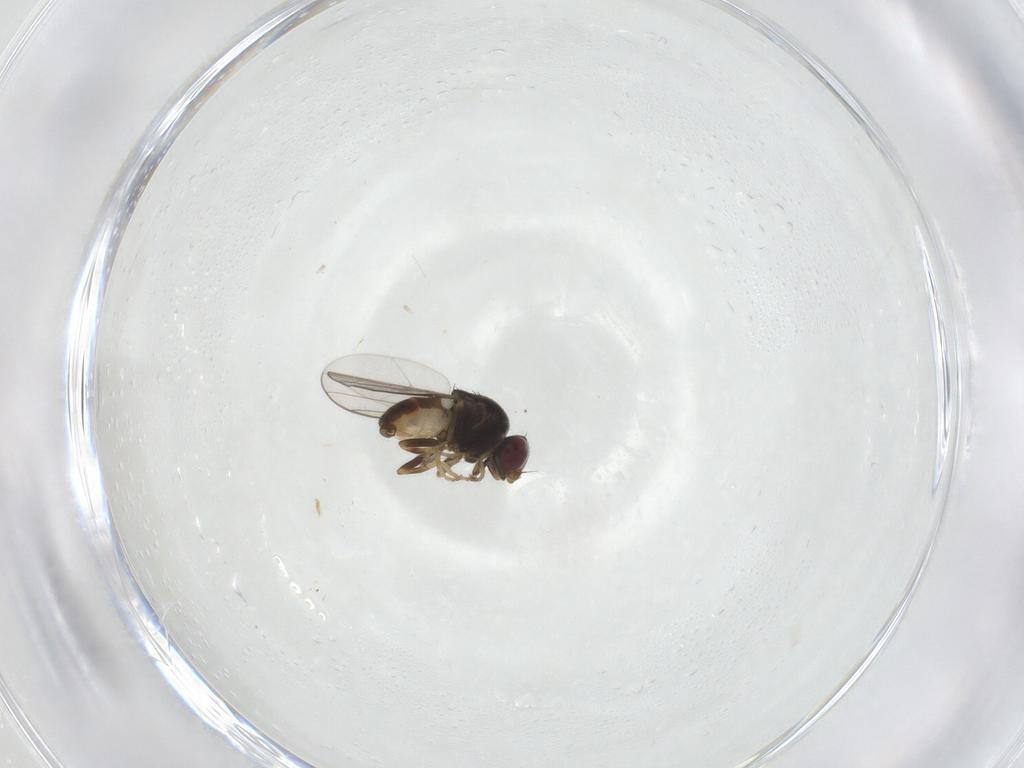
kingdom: Animalia
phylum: Arthropoda
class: Insecta
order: Diptera
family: Chloropidae
